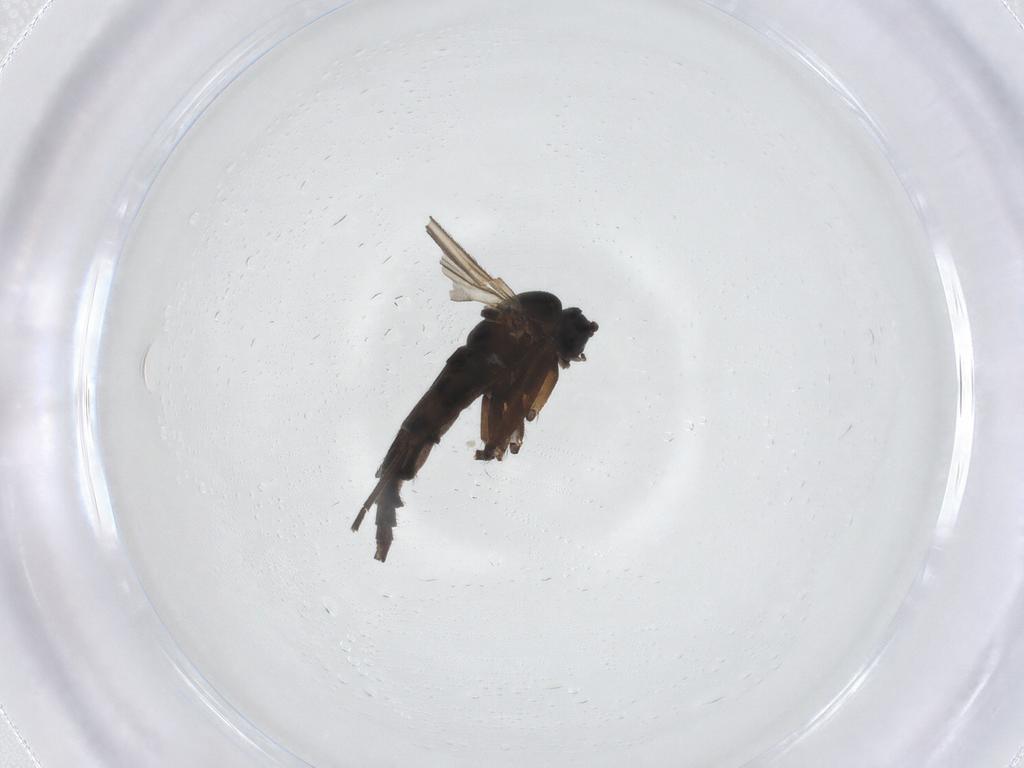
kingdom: Animalia
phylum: Arthropoda
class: Insecta
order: Diptera
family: Sciaridae
